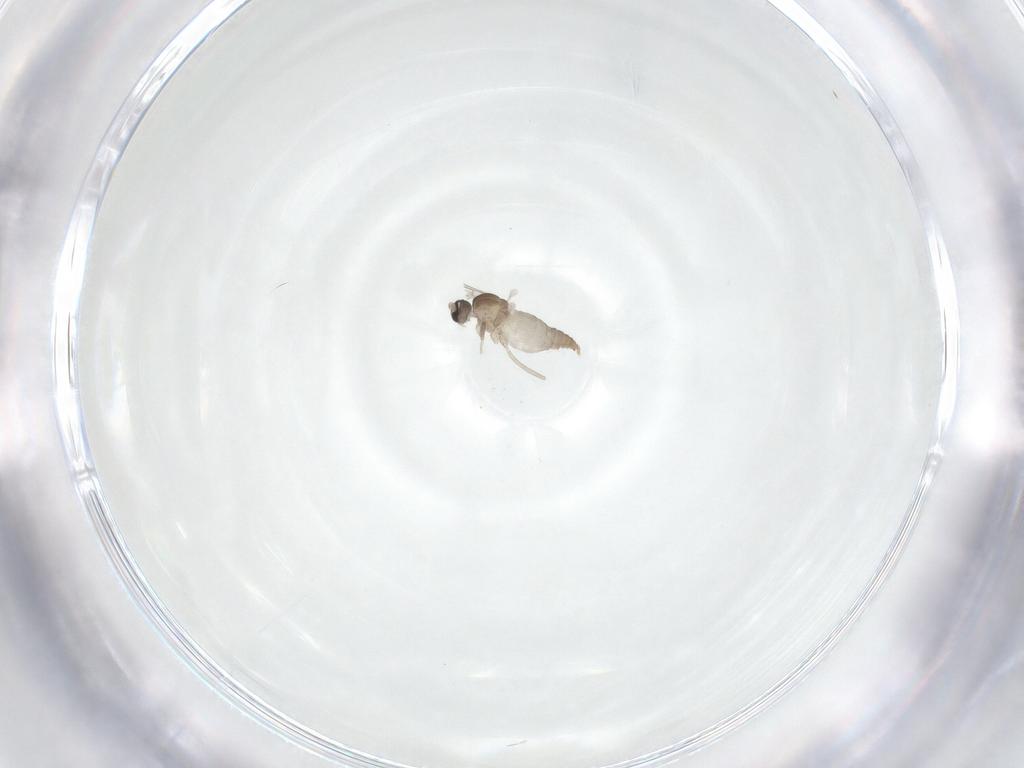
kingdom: Animalia
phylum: Arthropoda
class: Insecta
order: Diptera
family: Cecidomyiidae
